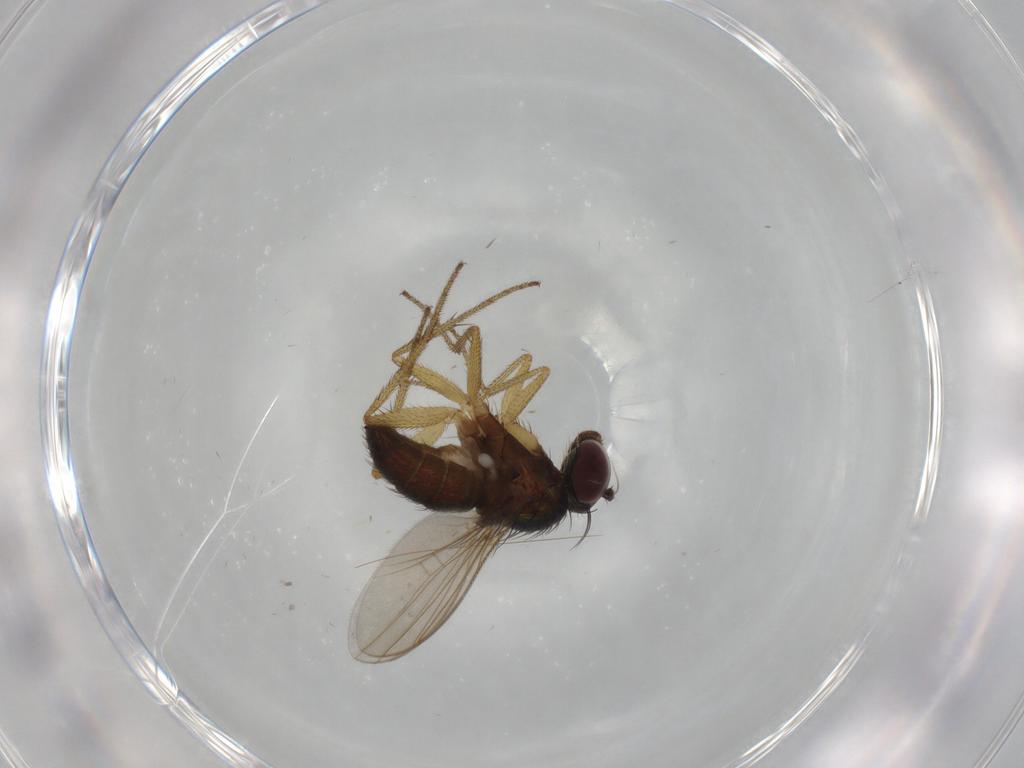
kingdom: Animalia
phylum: Arthropoda
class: Insecta
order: Diptera
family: Dolichopodidae
